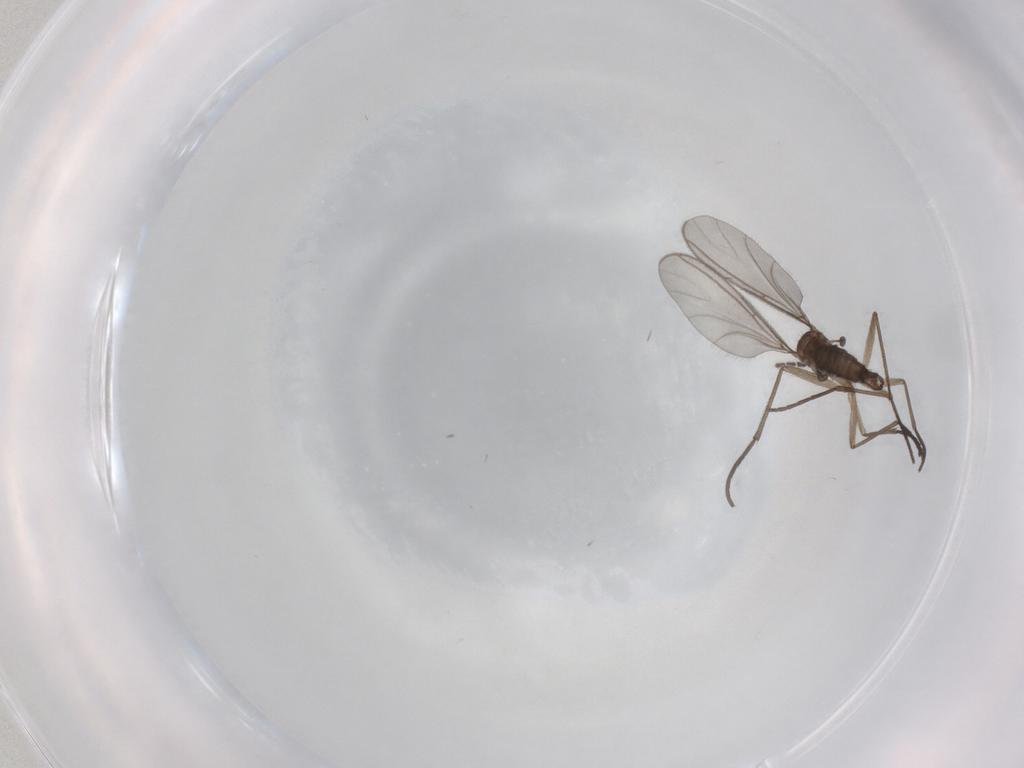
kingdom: Animalia
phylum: Arthropoda
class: Insecta
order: Diptera
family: Sciaridae
